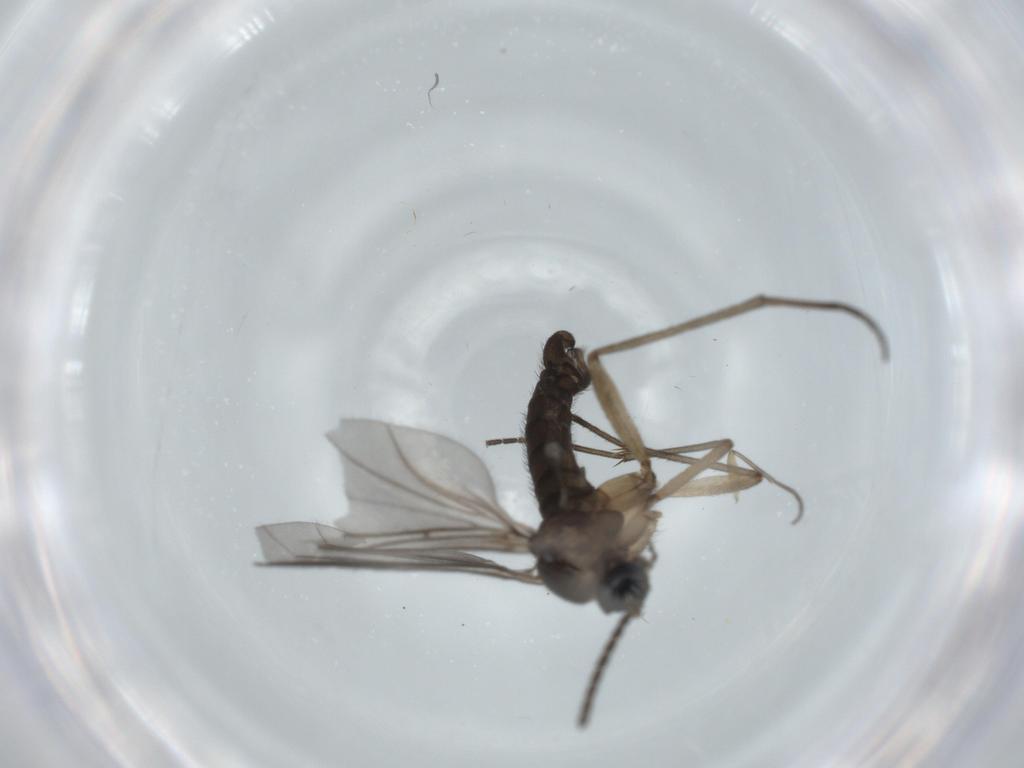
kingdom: Animalia
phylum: Arthropoda
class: Insecta
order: Diptera
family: Sciaridae
